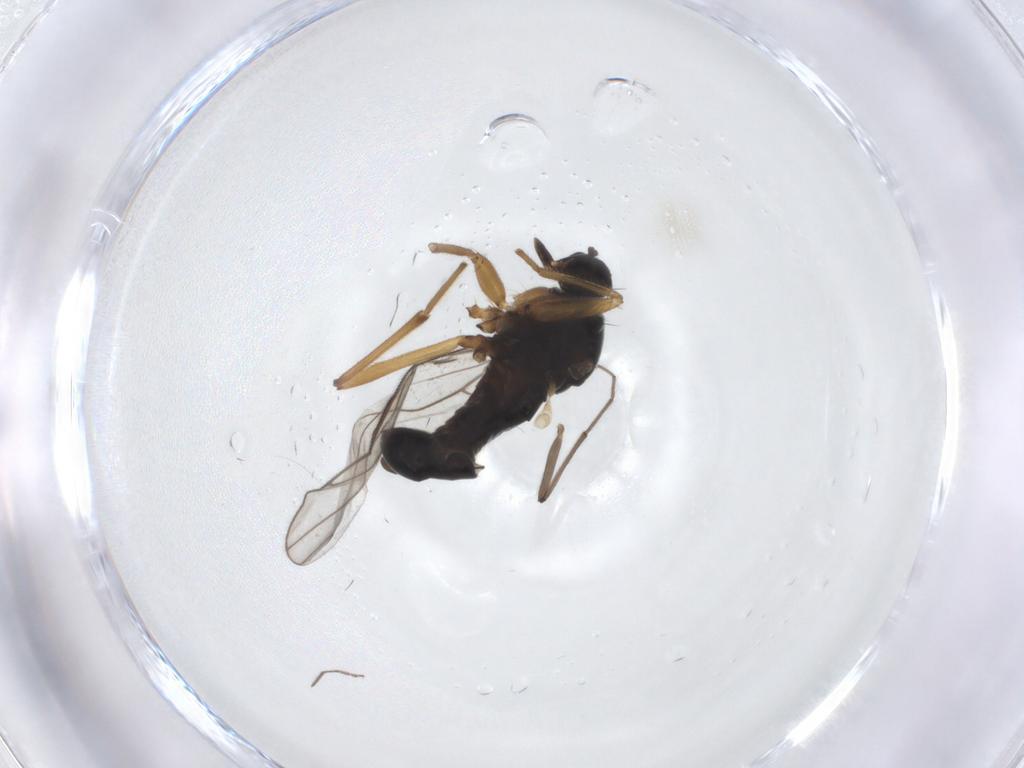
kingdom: Animalia
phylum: Arthropoda
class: Insecta
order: Diptera
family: Hybotidae
